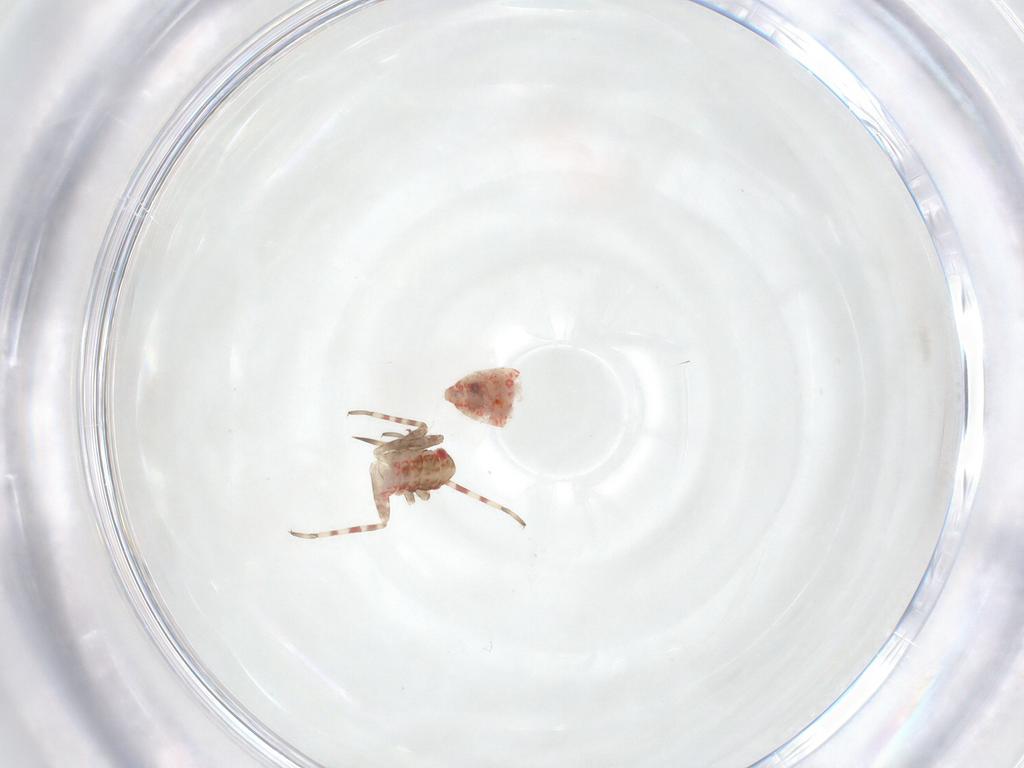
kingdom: Animalia
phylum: Arthropoda
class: Insecta
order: Hemiptera
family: Miridae
